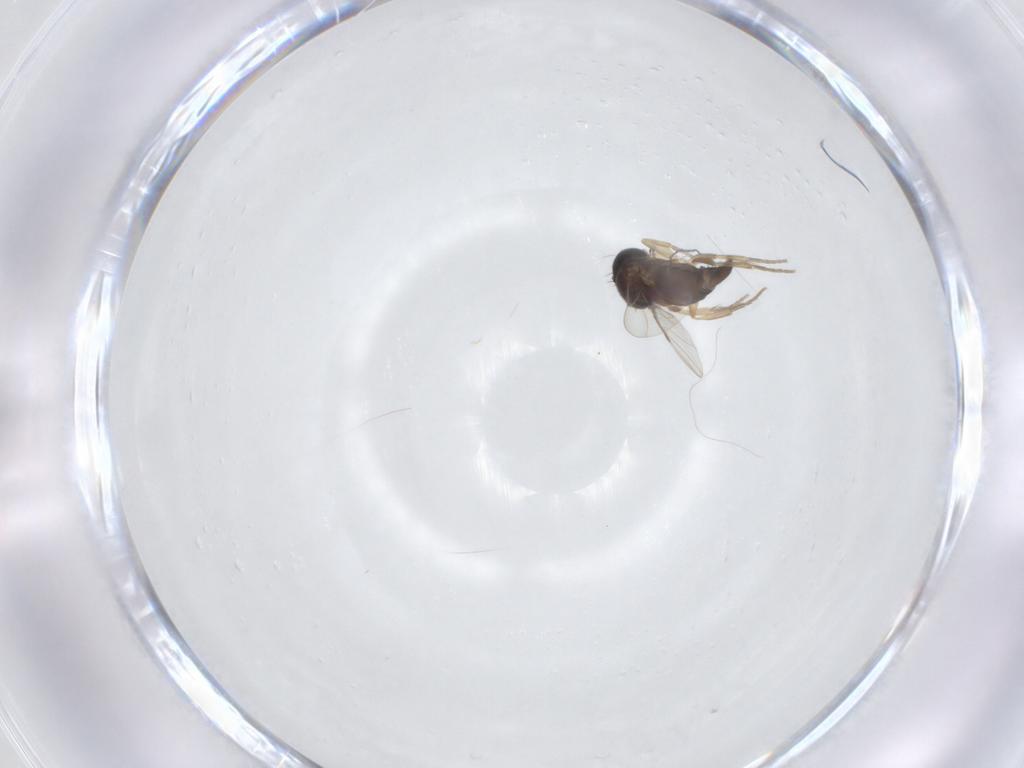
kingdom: Animalia
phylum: Arthropoda
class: Insecta
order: Diptera
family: Phoridae
